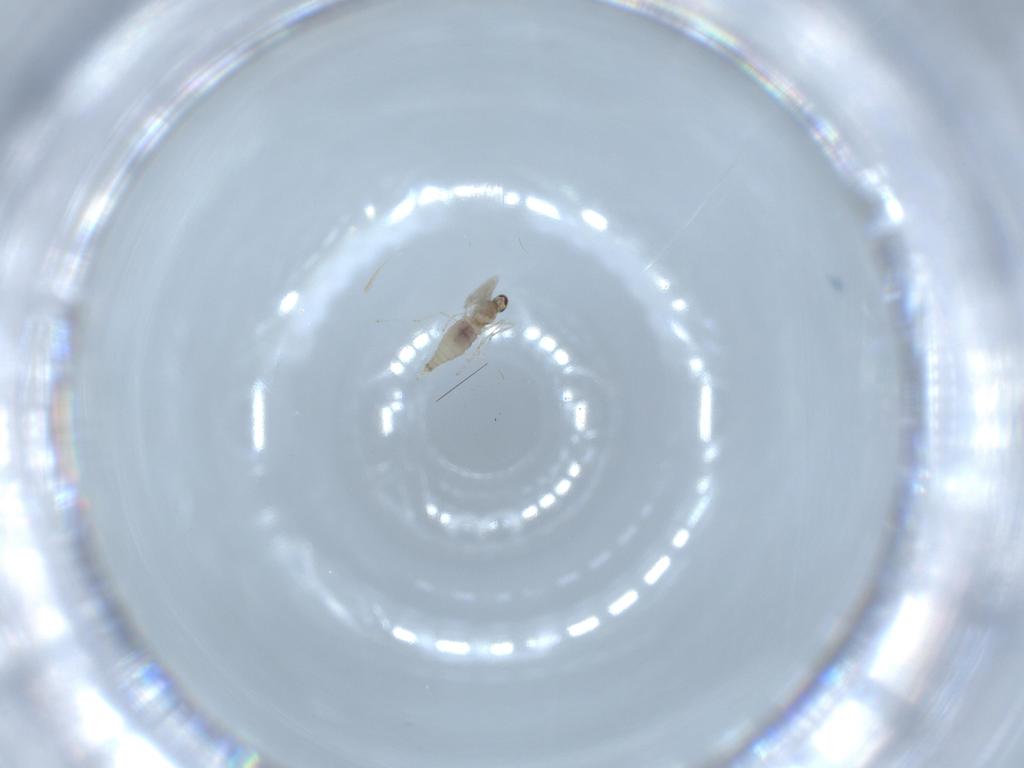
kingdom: Animalia
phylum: Arthropoda
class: Insecta
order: Diptera
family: Cecidomyiidae
